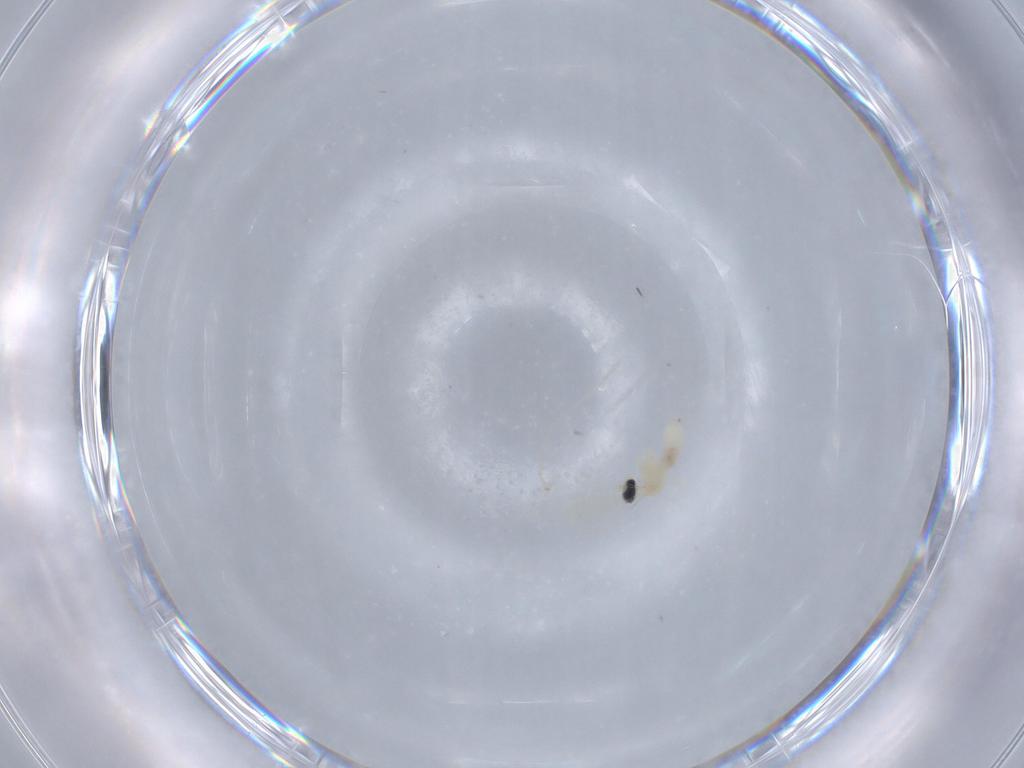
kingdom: Animalia
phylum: Arthropoda
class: Insecta
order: Diptera
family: Cecidomyiidae
